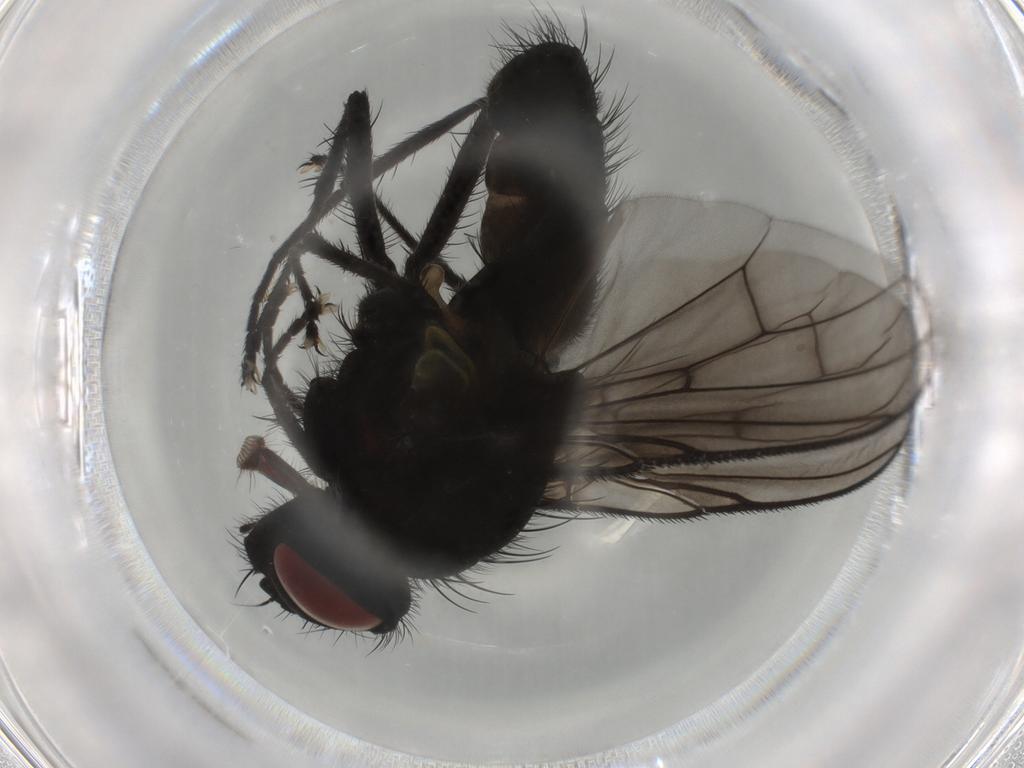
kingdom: Animalia
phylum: Arthropoda
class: Insecta
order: Diptera
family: Muscidae
